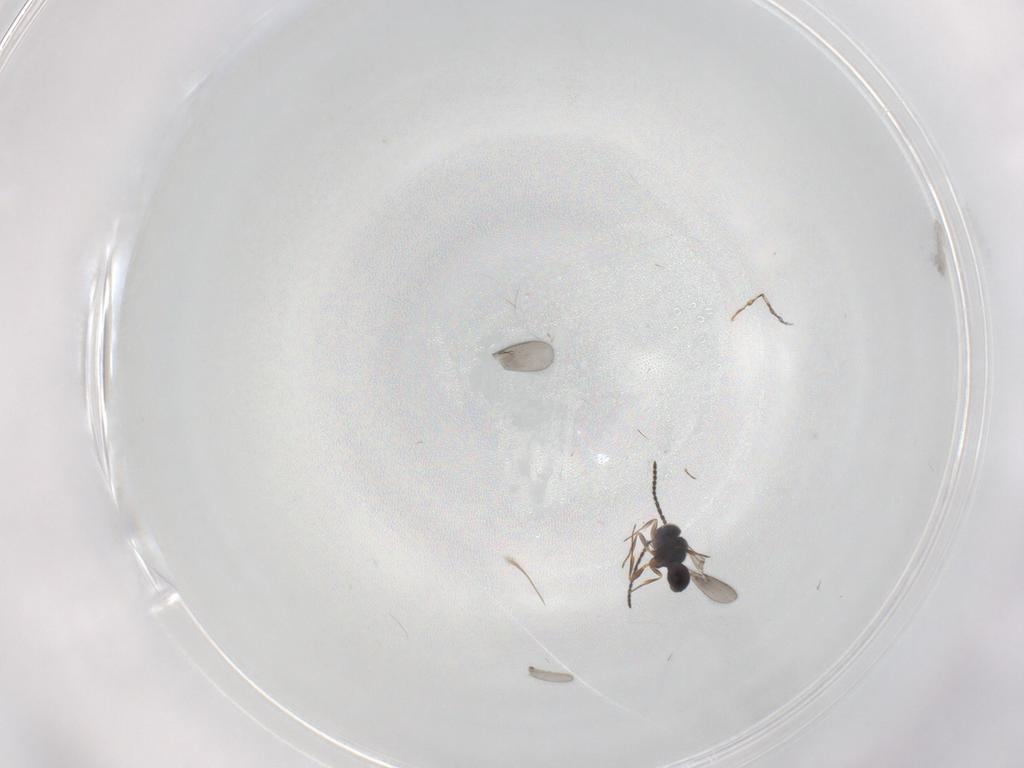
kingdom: Animalia
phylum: Arthropoda
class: Insecta
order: Hymenoptera
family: Scelionidae
